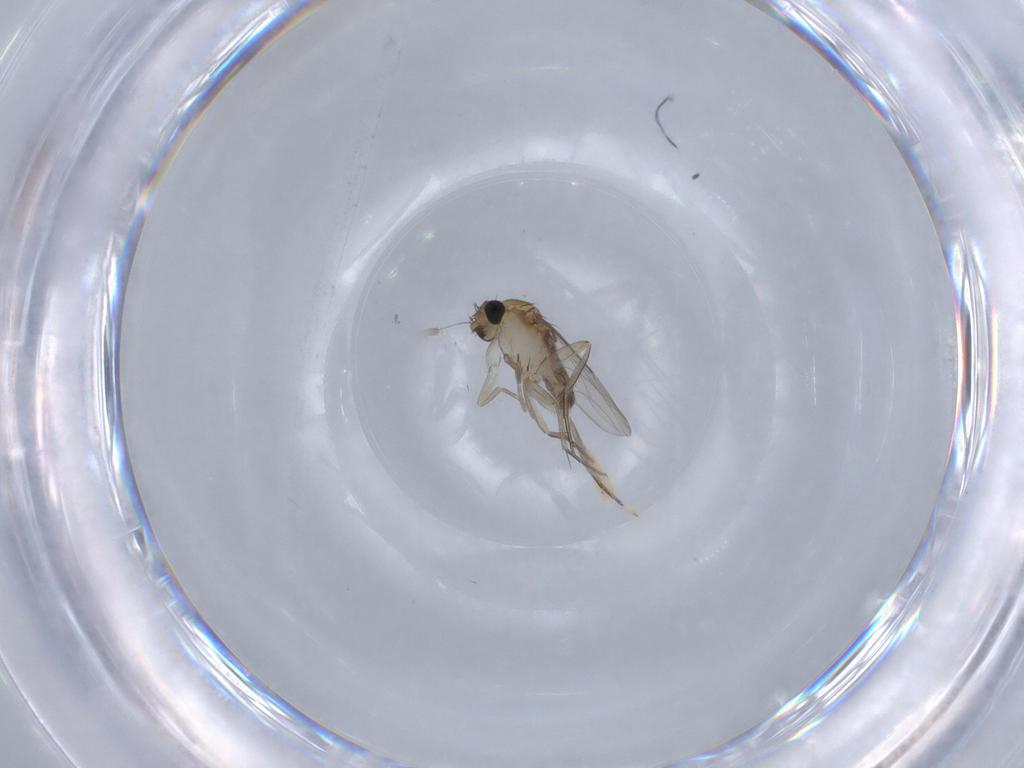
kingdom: Animalia
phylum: Arthropoda
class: Insecta
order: Diptera
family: Phoridae
